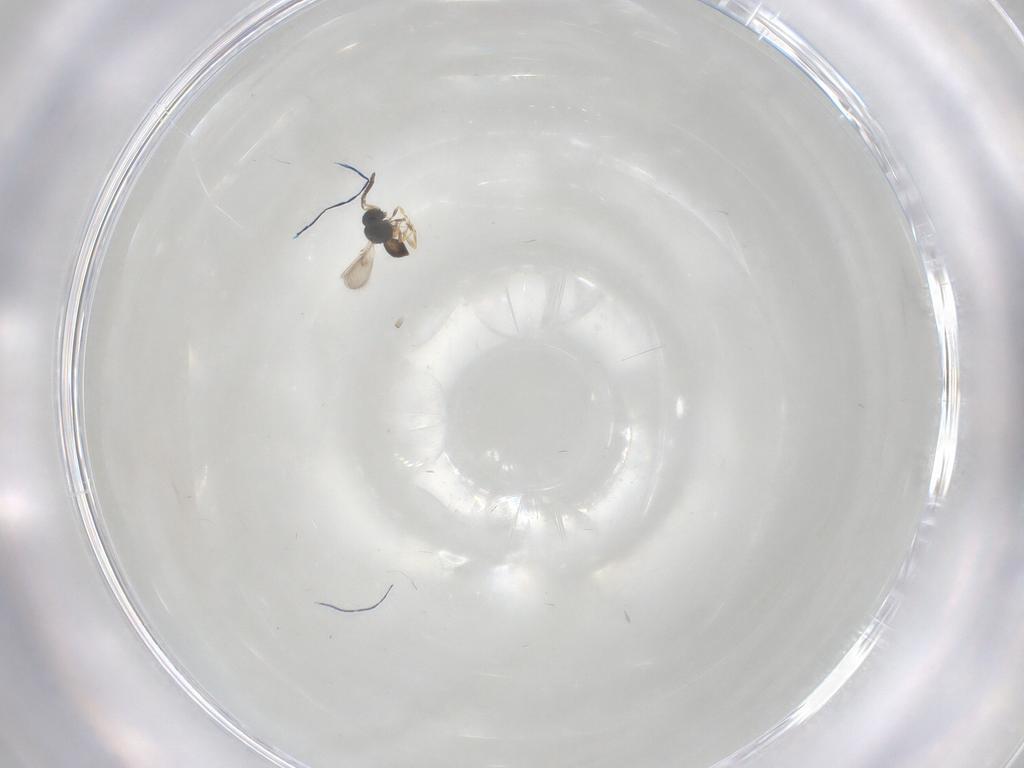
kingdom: Animalia
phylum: Arthropoda
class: Insecta
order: Hymenoptera
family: Scelionidae
